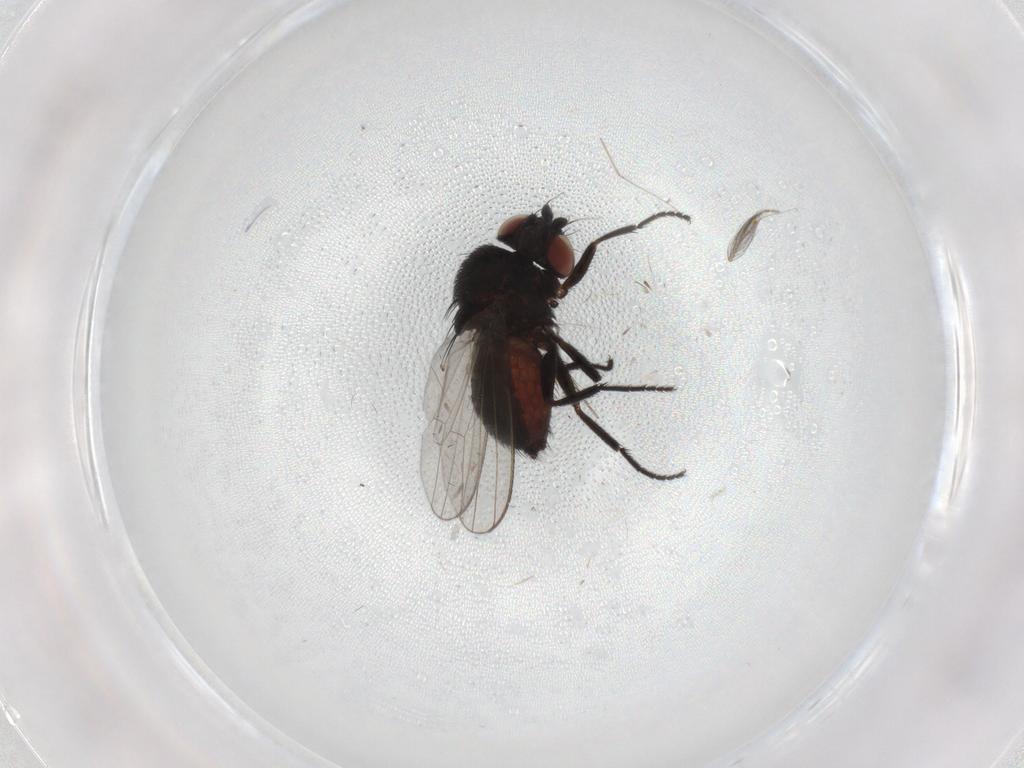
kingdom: Animalia
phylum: Arthropoda
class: Insecta
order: Diptera
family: Milichiidae
